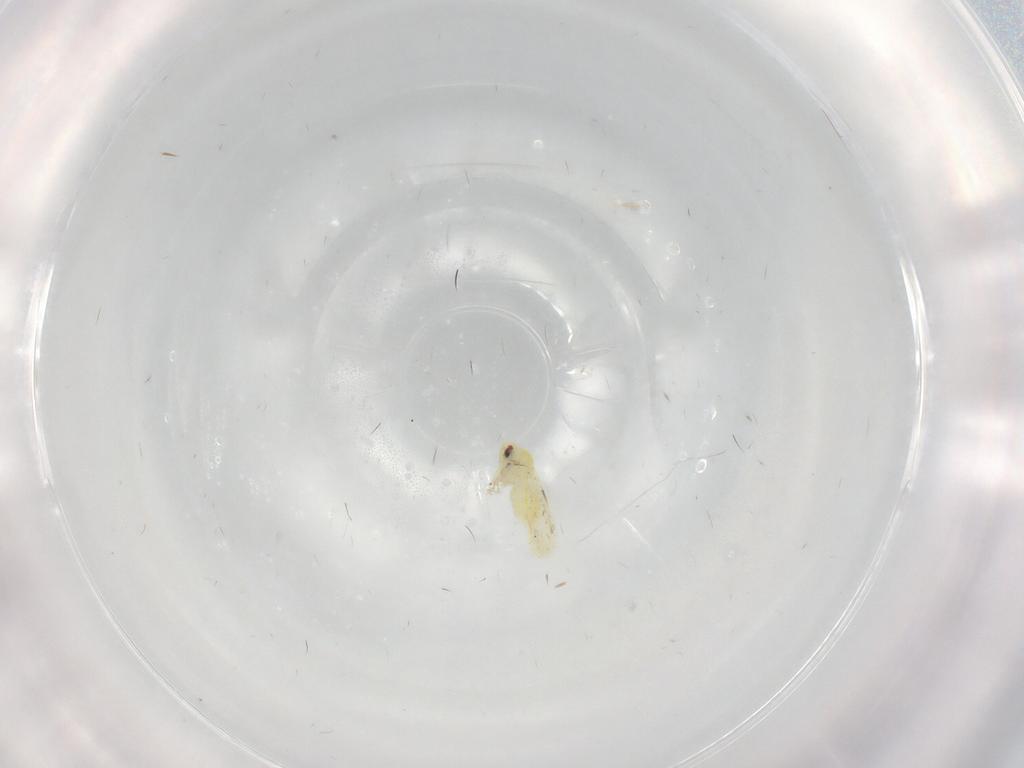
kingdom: Animalia
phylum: Arthropoda
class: Insecta
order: Hemiptera
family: Aleyrodidae
